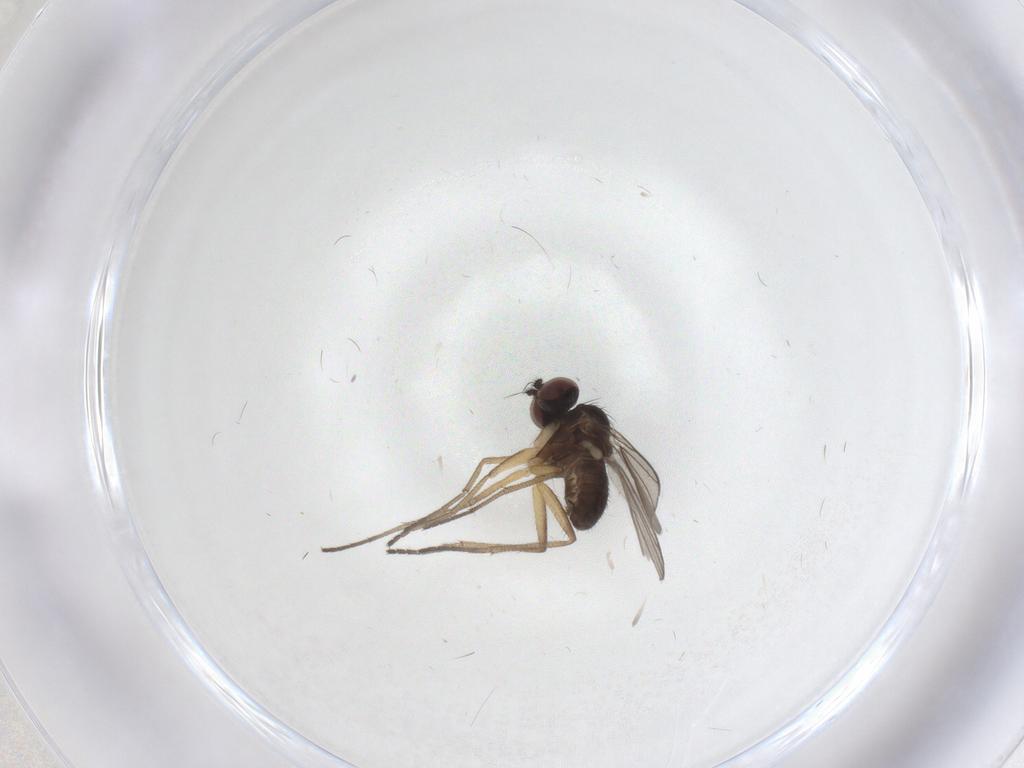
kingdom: Animalia
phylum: Arthropoda
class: Insecta
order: Diptera
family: Dolichopodidae
